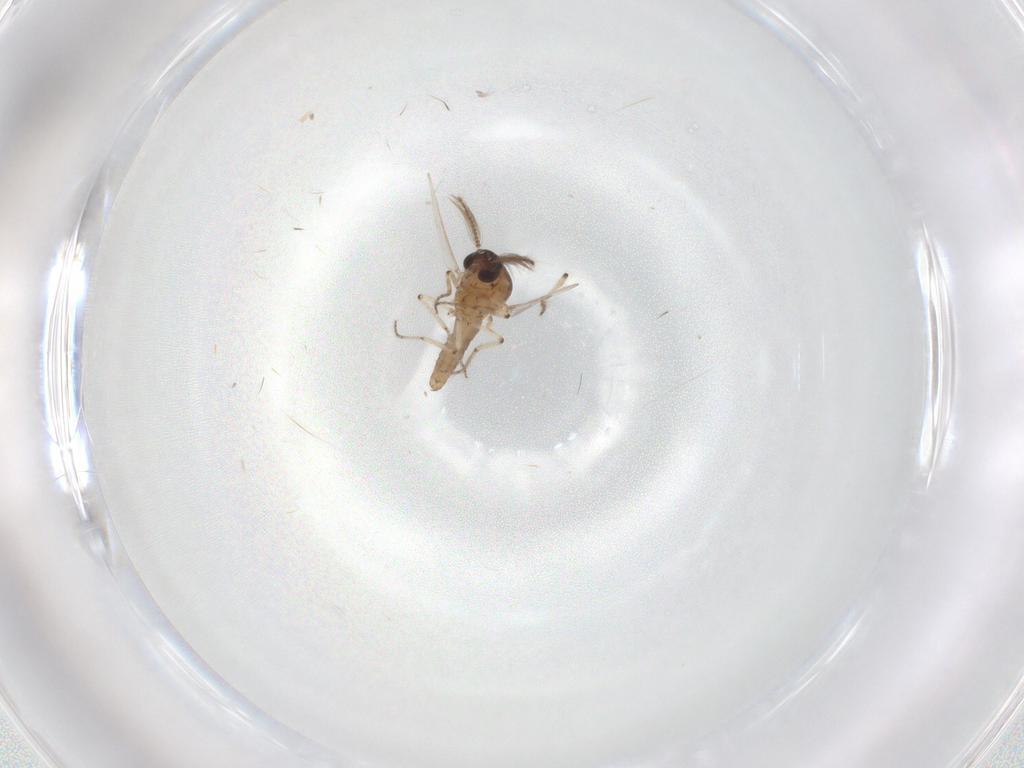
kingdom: Animalia
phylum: Arthropoda
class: Insecta
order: Diptera
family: Ceratopogonidae
